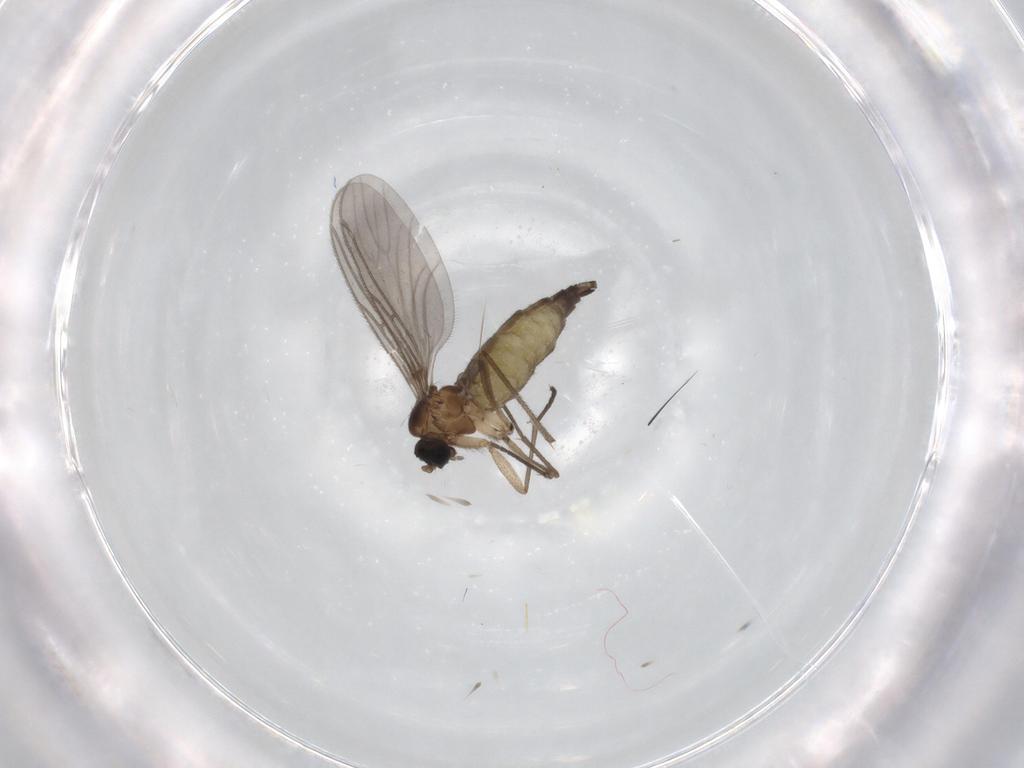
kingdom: Animalia
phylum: Arthropoda
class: Insecta
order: Diptera
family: Sciaridae
